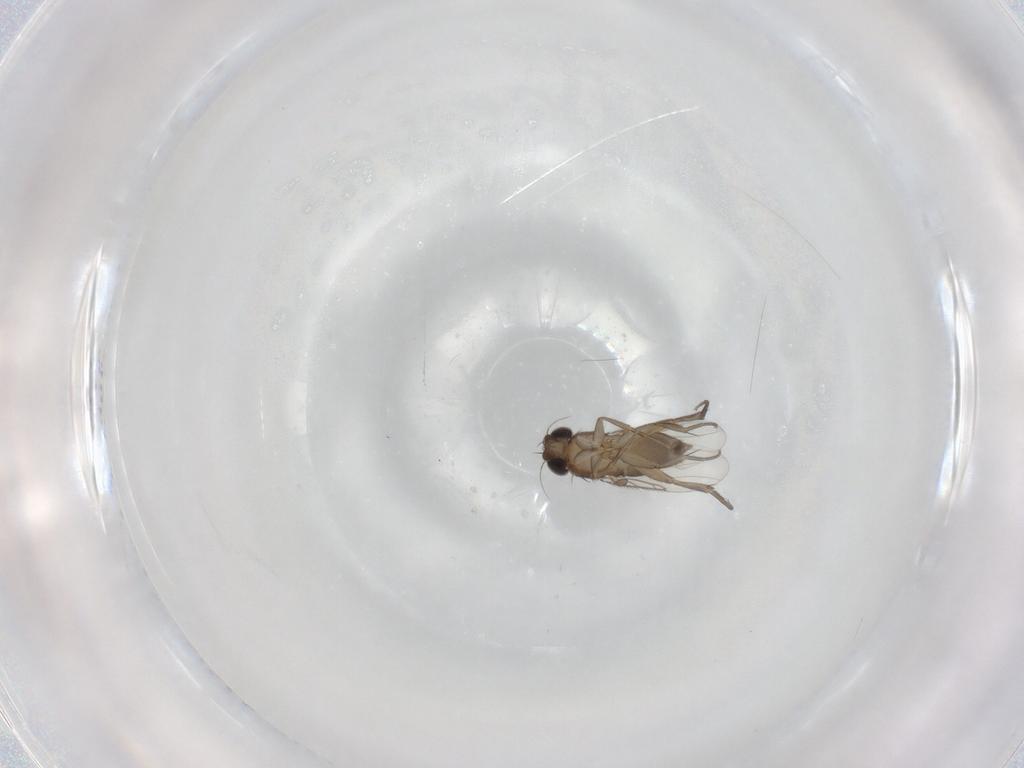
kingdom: Animalia
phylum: Arthropoda
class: Insecta
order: Diptera
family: Phoridae
